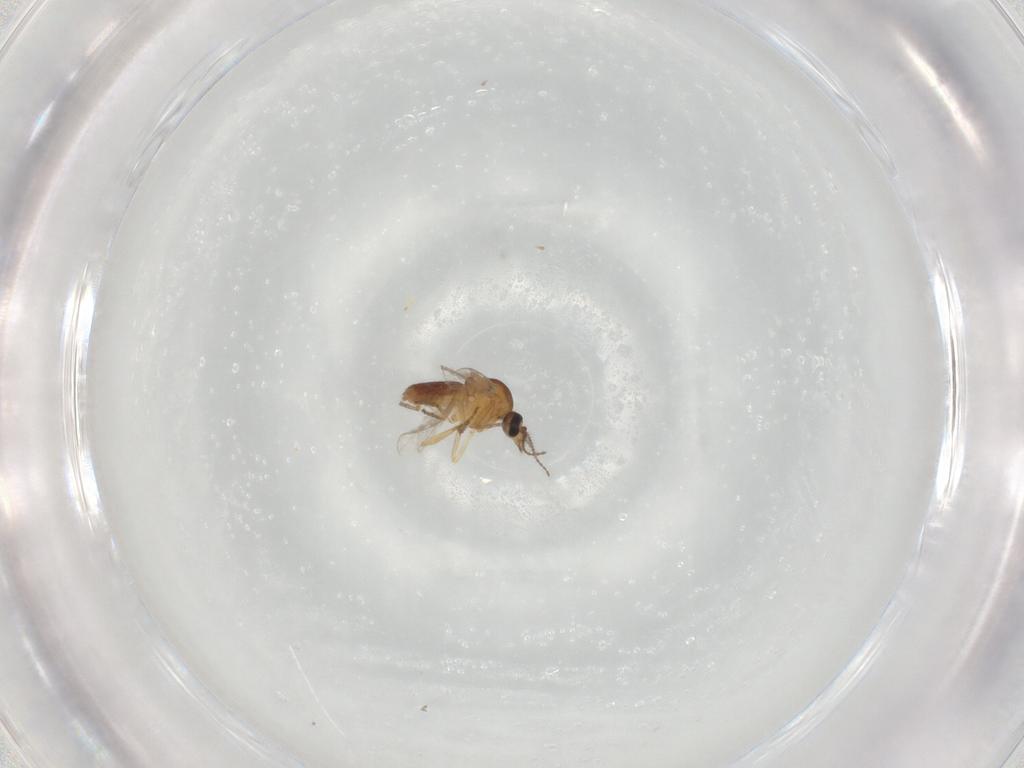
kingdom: Animalia
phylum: Arthropoda
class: Insecta
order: Diptera
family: Ceratopogonidae
